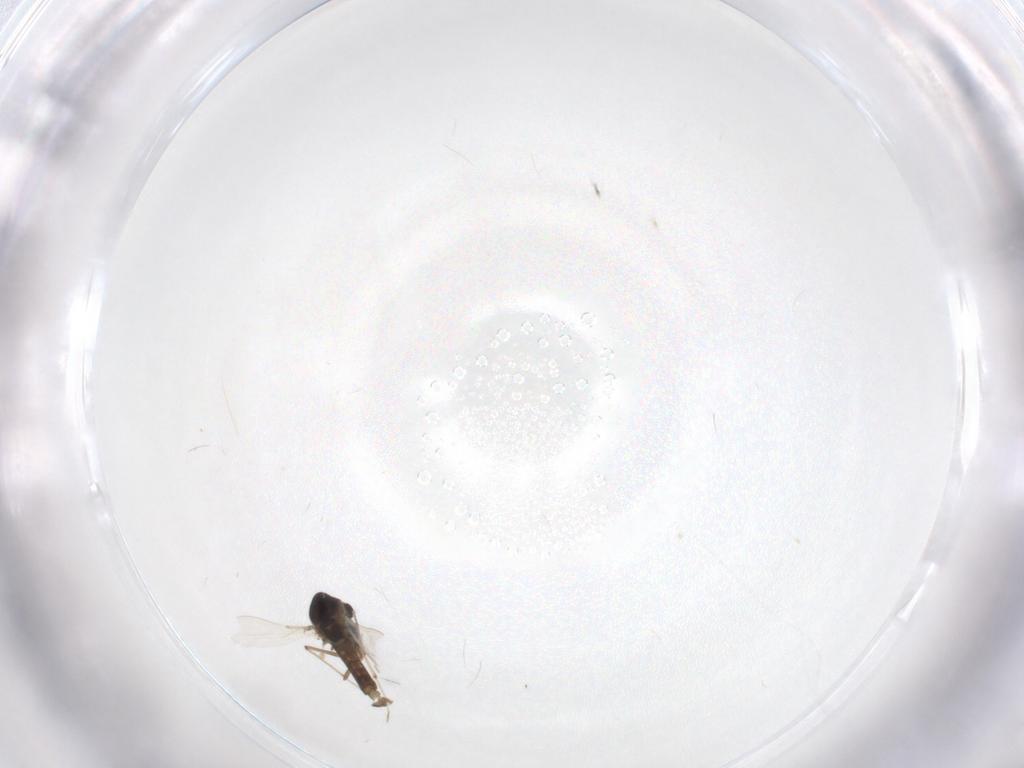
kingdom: Animalia
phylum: Arthropoda
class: Insecta
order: Diptera
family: Chironomidae
